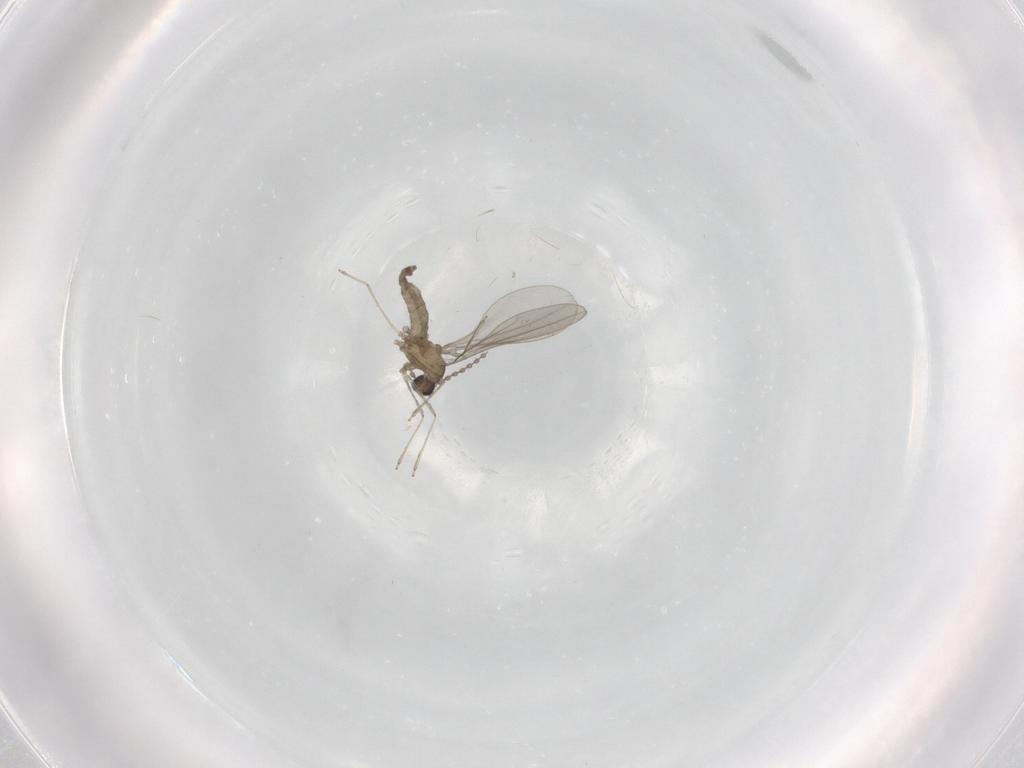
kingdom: Animalia
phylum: Arthropoda
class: Insecta
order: Diptera
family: Cecidomyiidae
